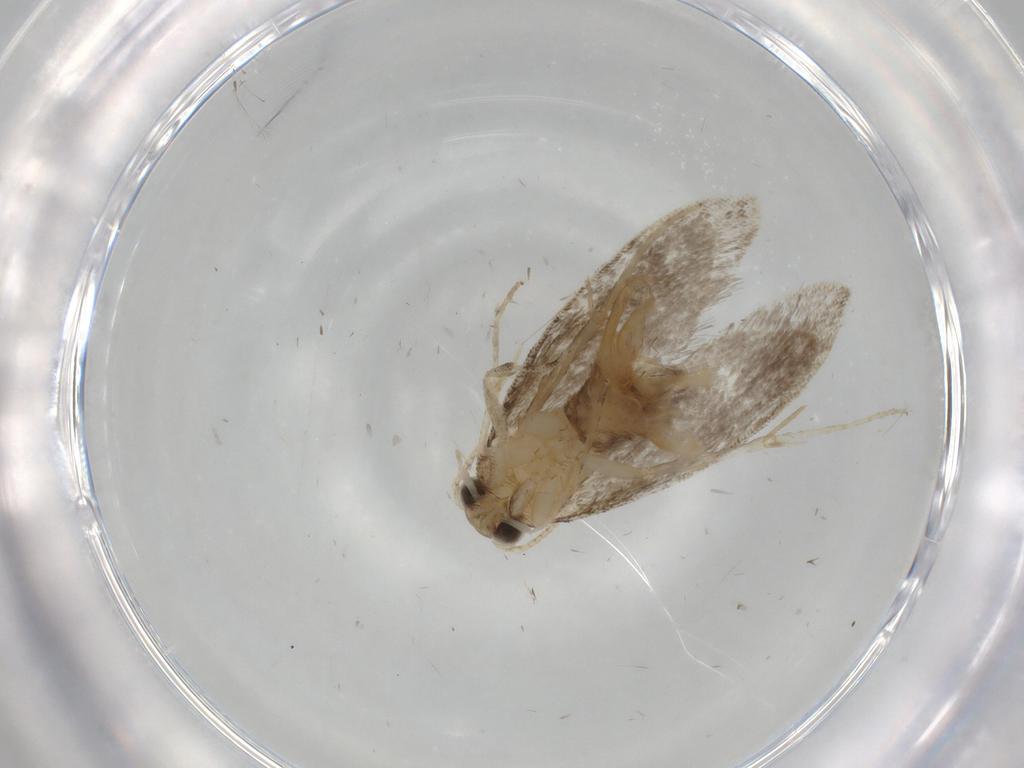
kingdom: Animalia
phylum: Arthropoda
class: Insecta
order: Lepidoptera
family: Tineidae
